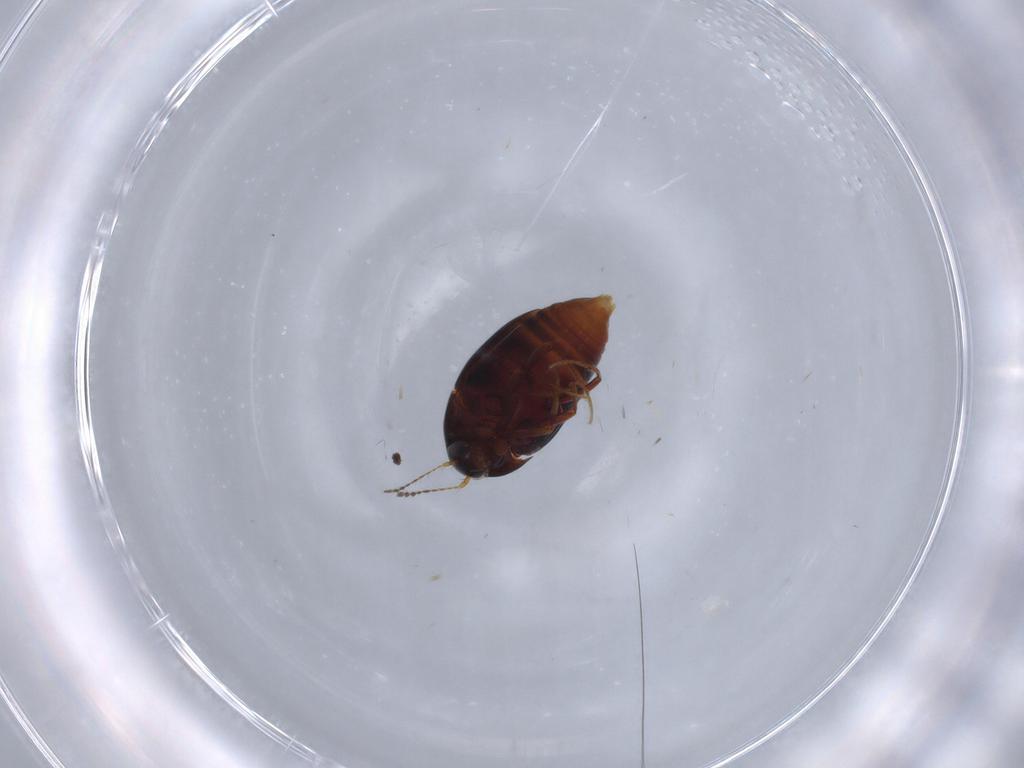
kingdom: Animalia
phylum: Arthropoda
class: Insecta
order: Coleoptera
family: Staphylinidae
